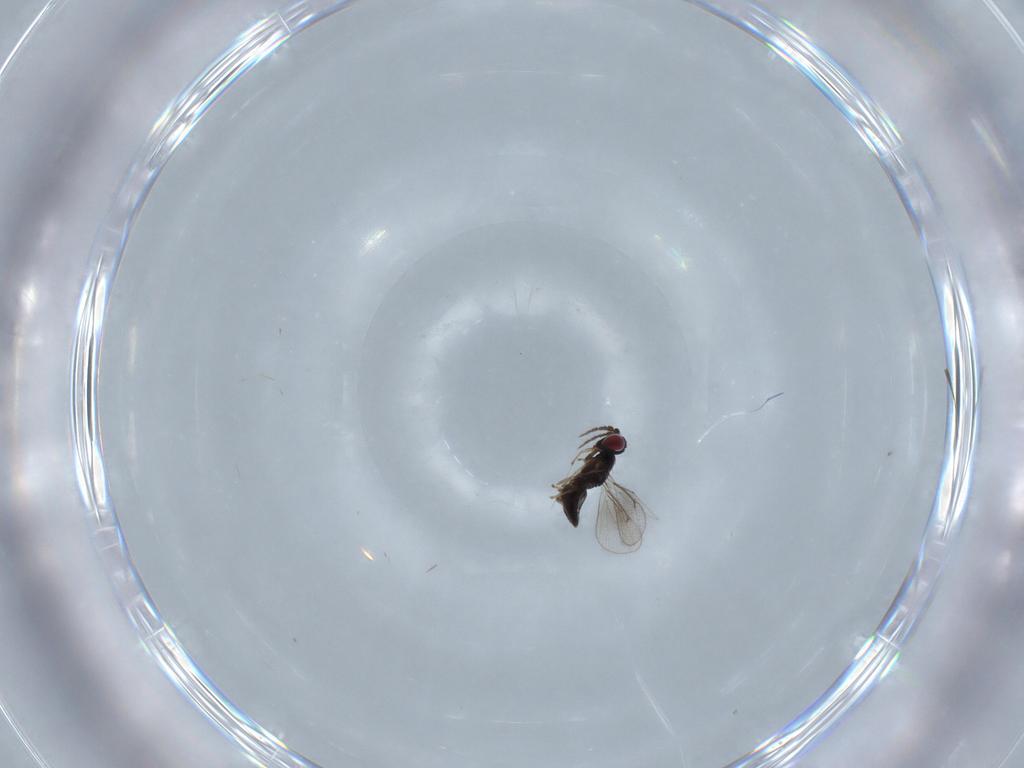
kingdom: Animalia
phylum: Arthropoda
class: Insecta
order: Hymenoptera
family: Eulophidae
